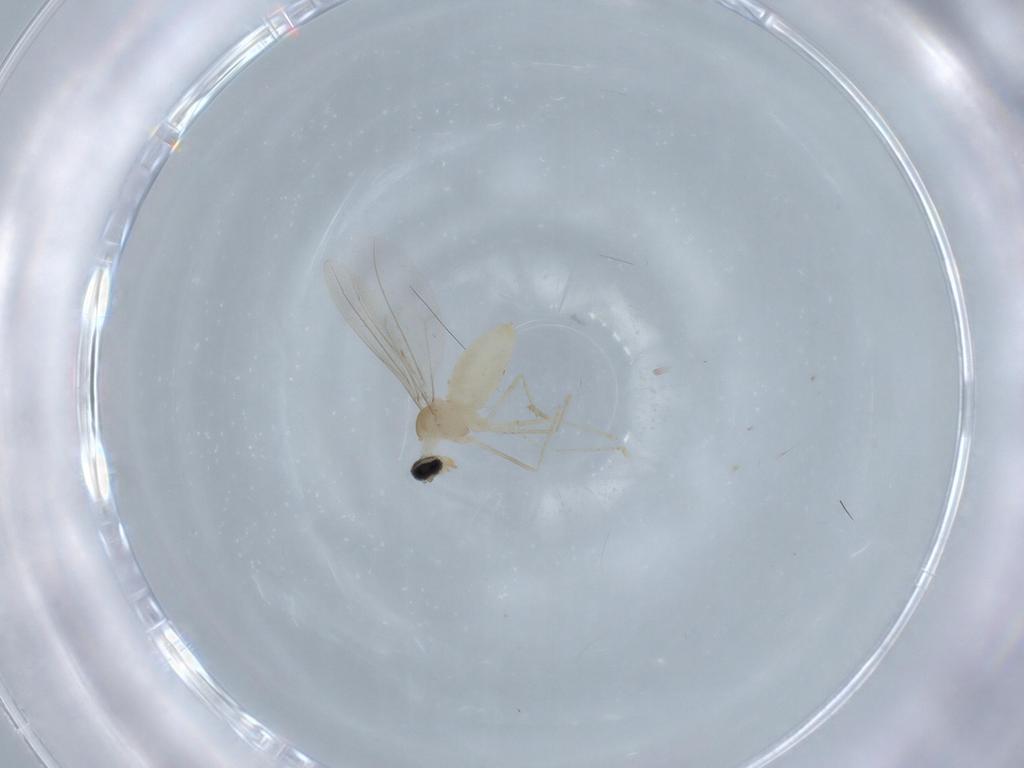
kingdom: Animalia
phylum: Arthropoda
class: Insecta
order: Diptera
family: Cecidomyiidae
